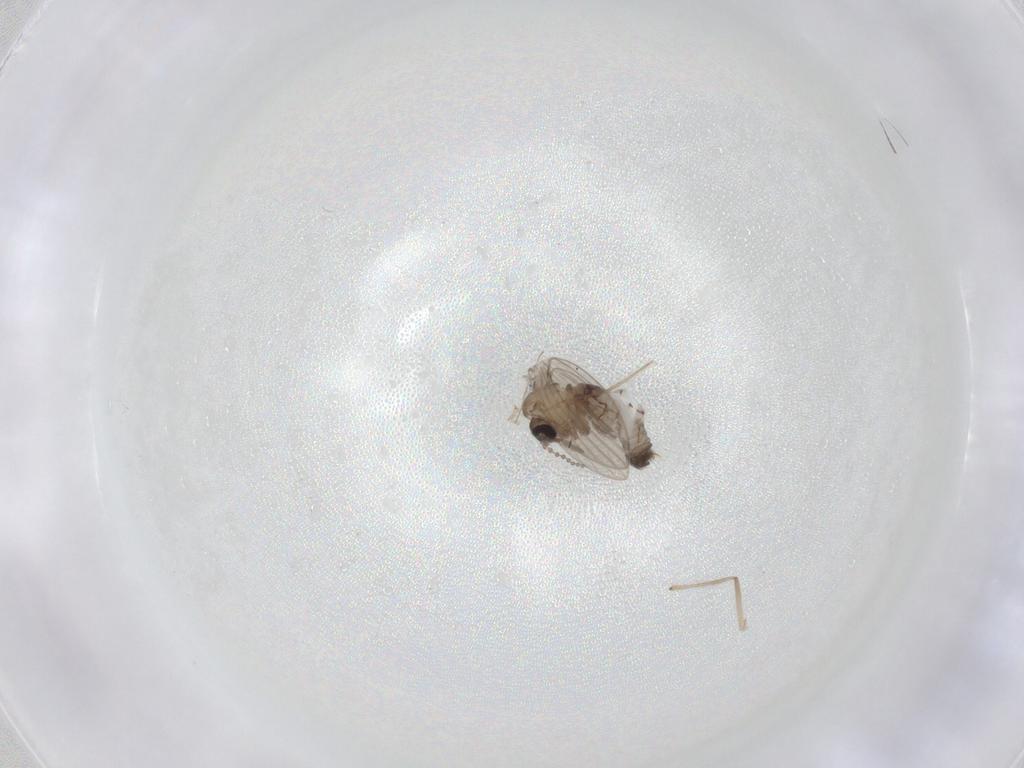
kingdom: Animalia
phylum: Arthropoda
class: Insecta
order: Diptera
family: Psychodidae
